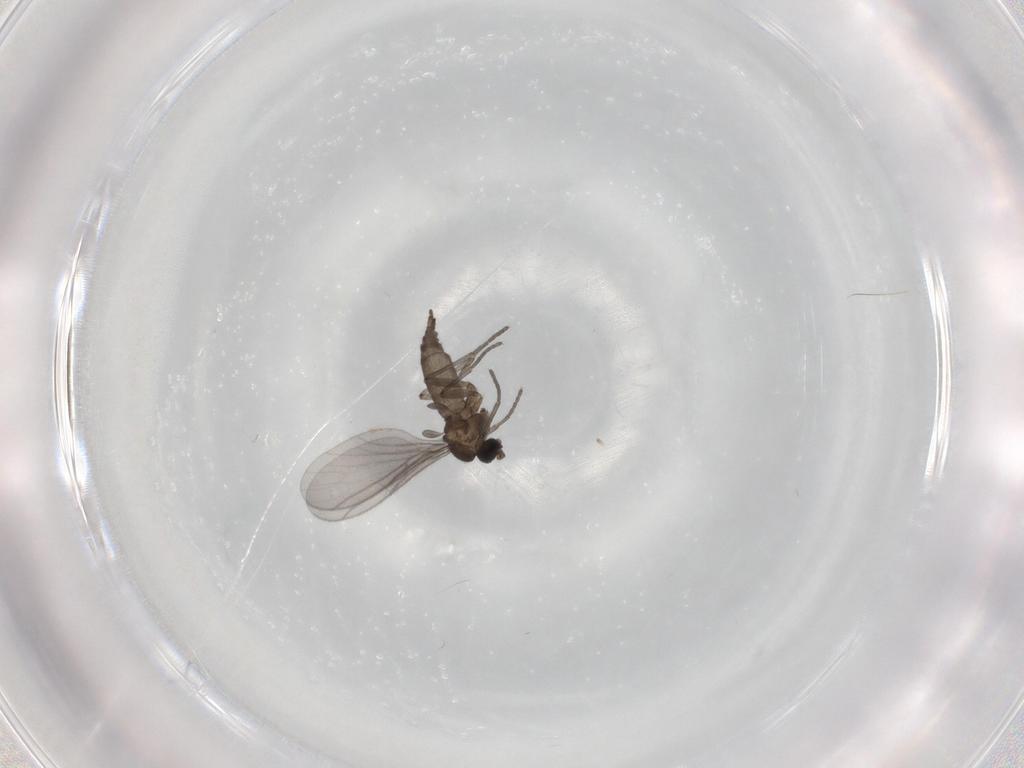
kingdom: Animalia
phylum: Arthropoda
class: Insecta
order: Diptera
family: Sciaridae
